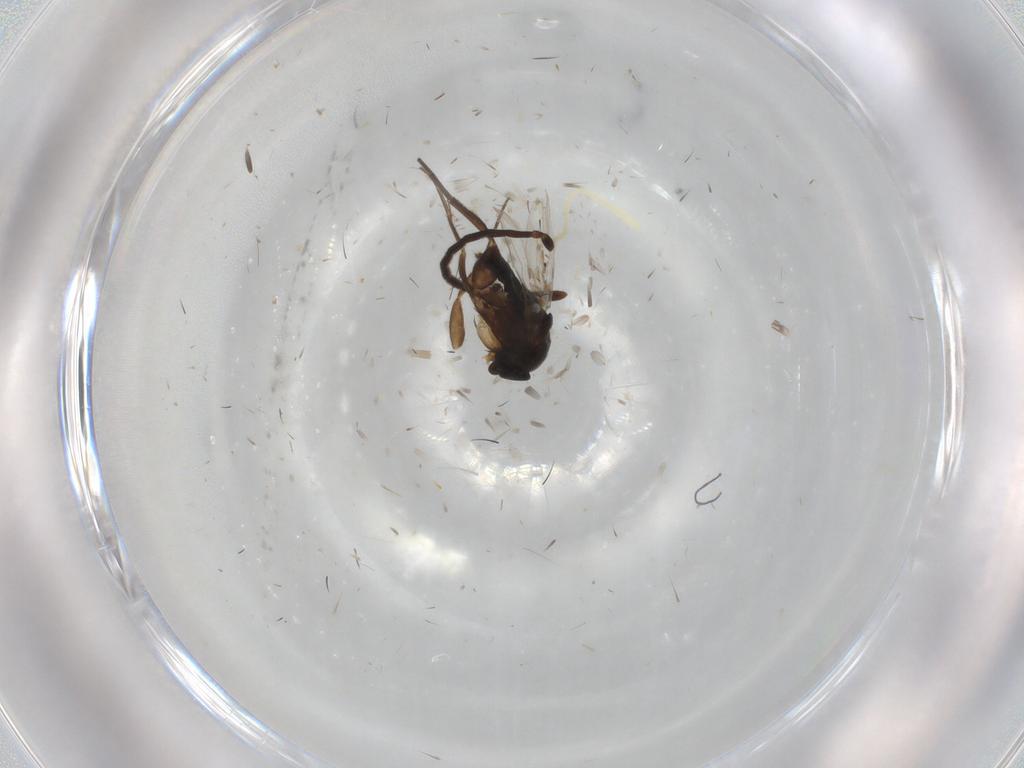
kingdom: Animalia
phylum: Arthropoda
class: Insecta
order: Diptera
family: Phoridae
